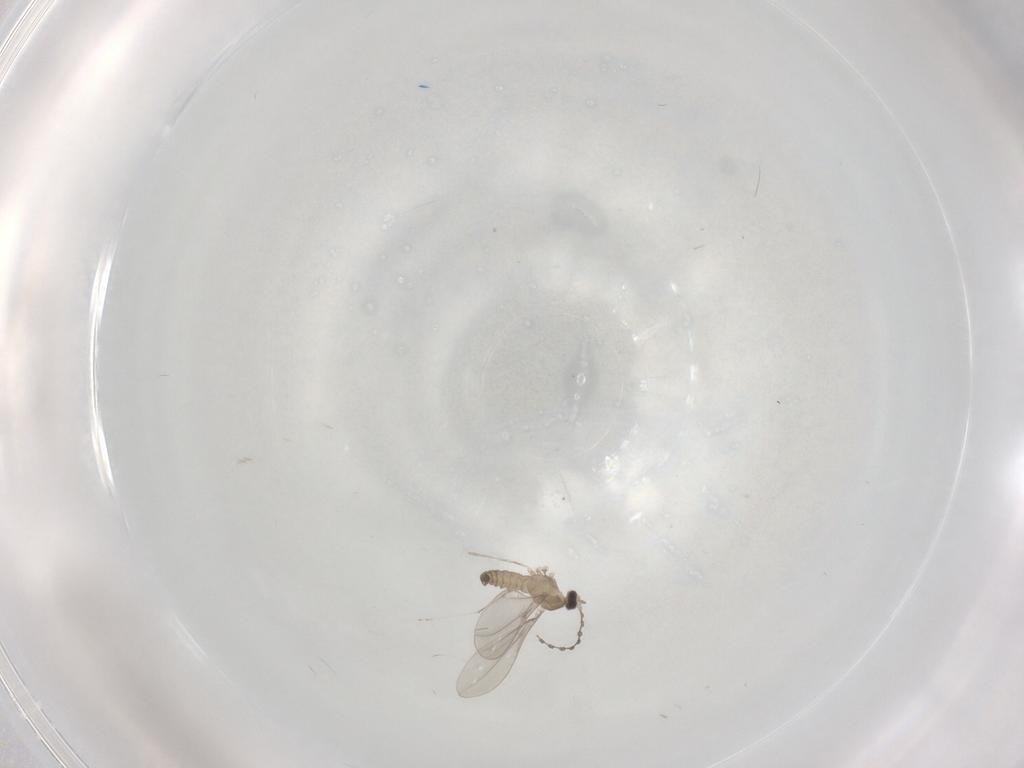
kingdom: Animalia
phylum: Arthropoda
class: Insecta
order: Diptera
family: Cecidomyiidae
